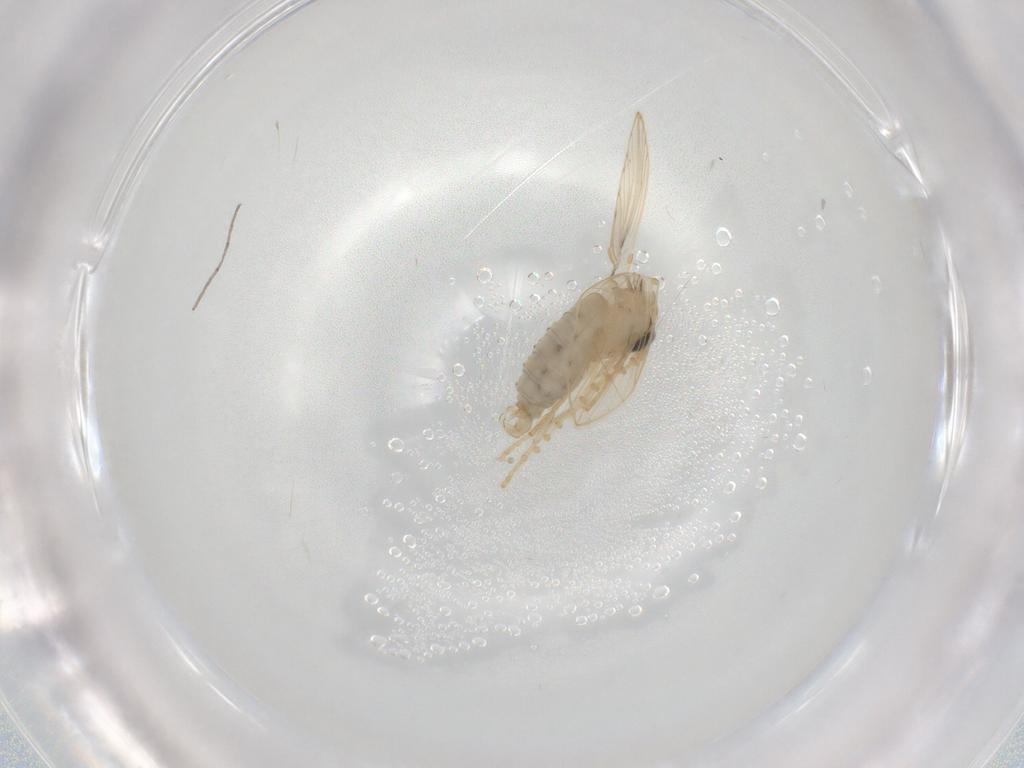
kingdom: Animalia
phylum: Arthropoda
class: Insecta
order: Diptera
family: Psychodidae
